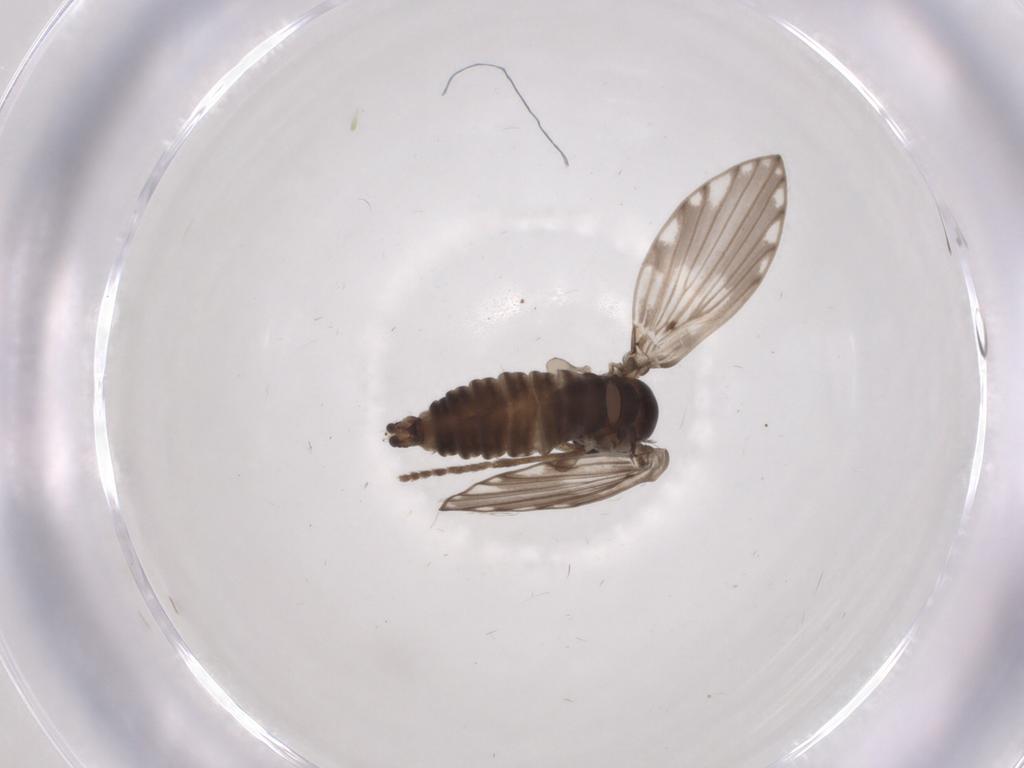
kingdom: Animalia
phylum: Arthropoda
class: Insecta
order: Diptera
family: Psychodidae
